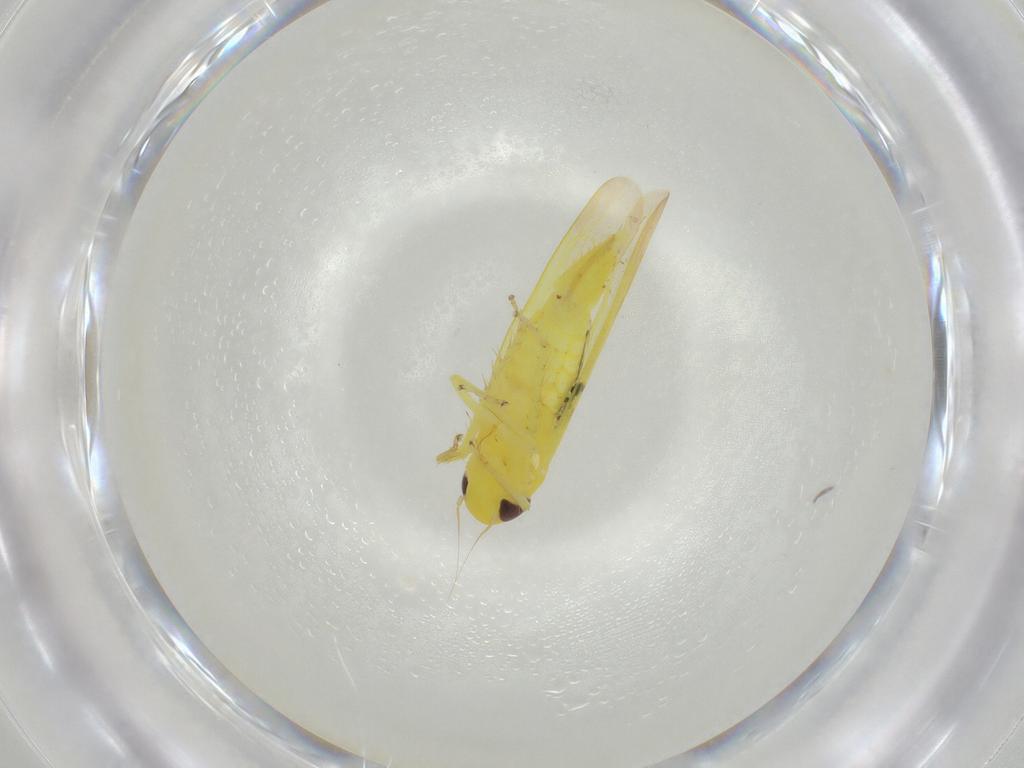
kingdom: Animalia
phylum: Arthropoda
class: Insecta
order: Hemiptera
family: Cicadellidae
